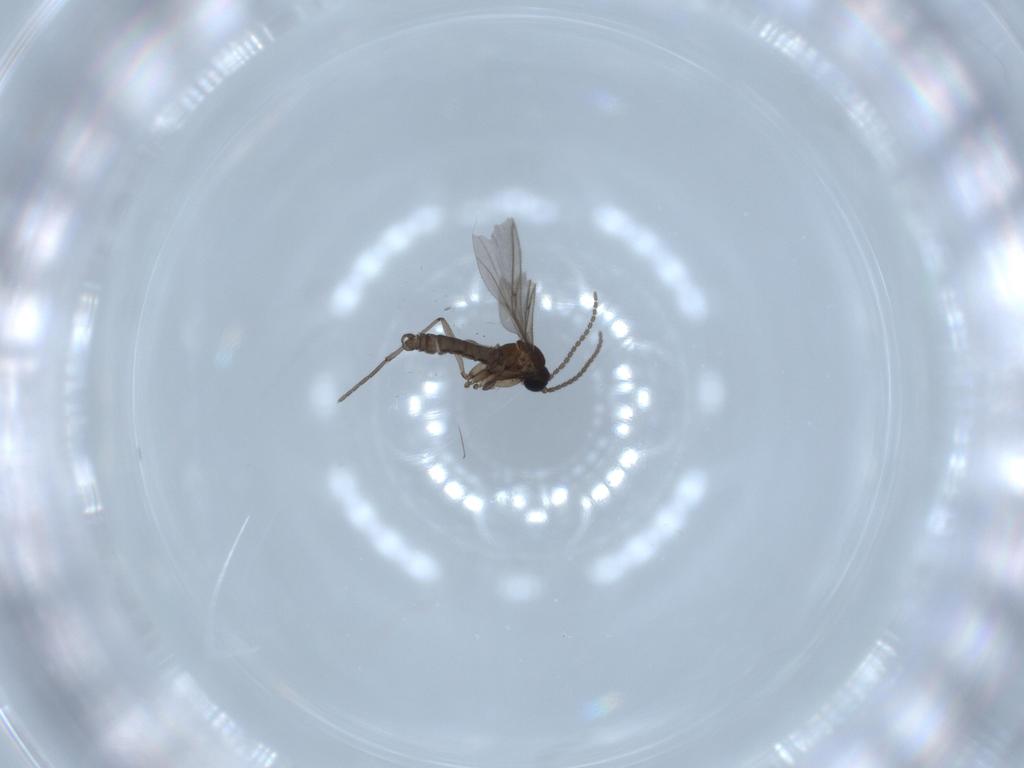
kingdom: Animalia
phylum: Arthropoda
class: Insecta
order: Diptera
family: Sciaridae
